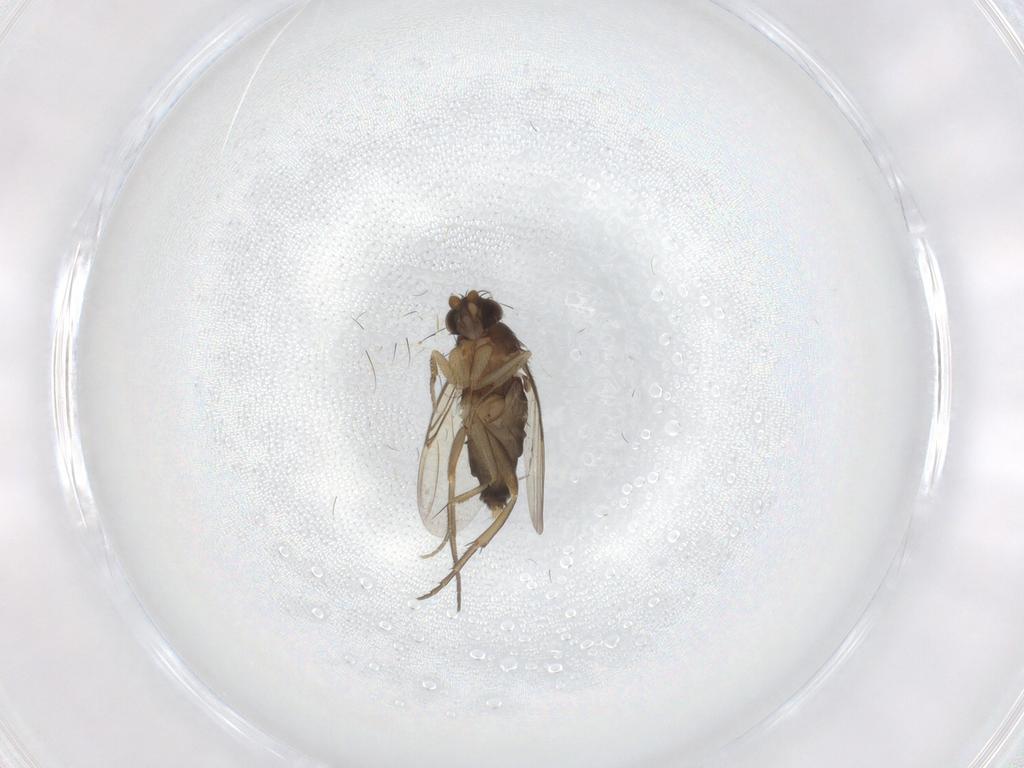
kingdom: Animalia
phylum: Arthropoda
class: Insecta
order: Diptera
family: Phoridae
